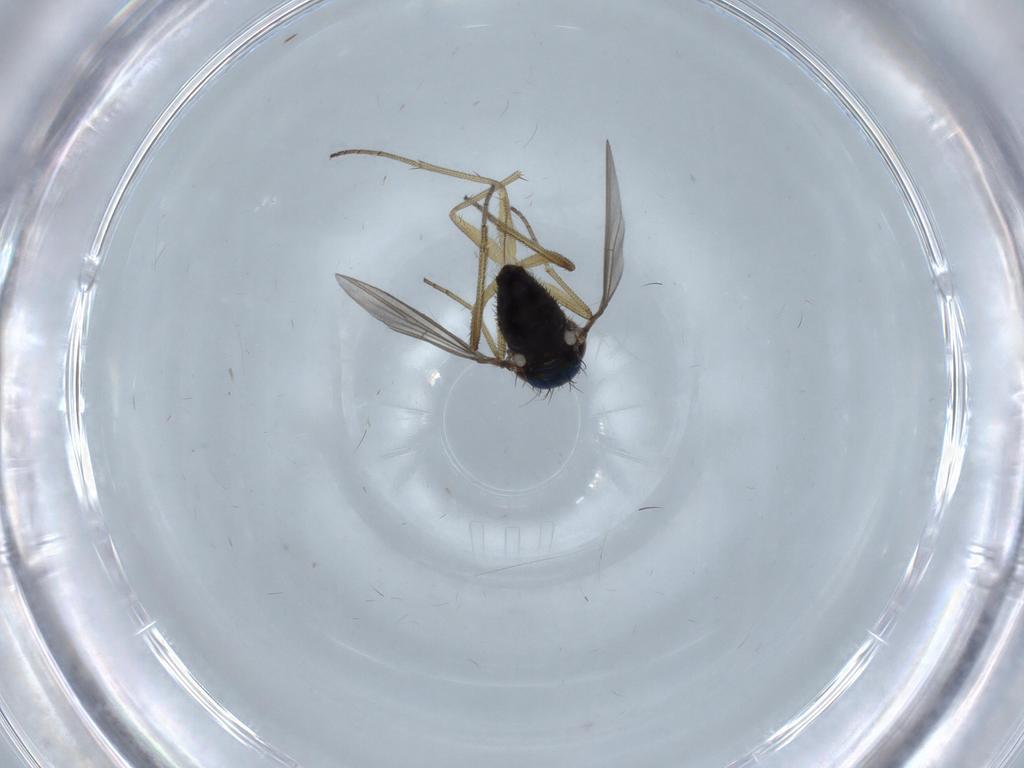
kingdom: Animalia
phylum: Arthropoda
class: Insecta
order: Diptera
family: Dolichopodidae
